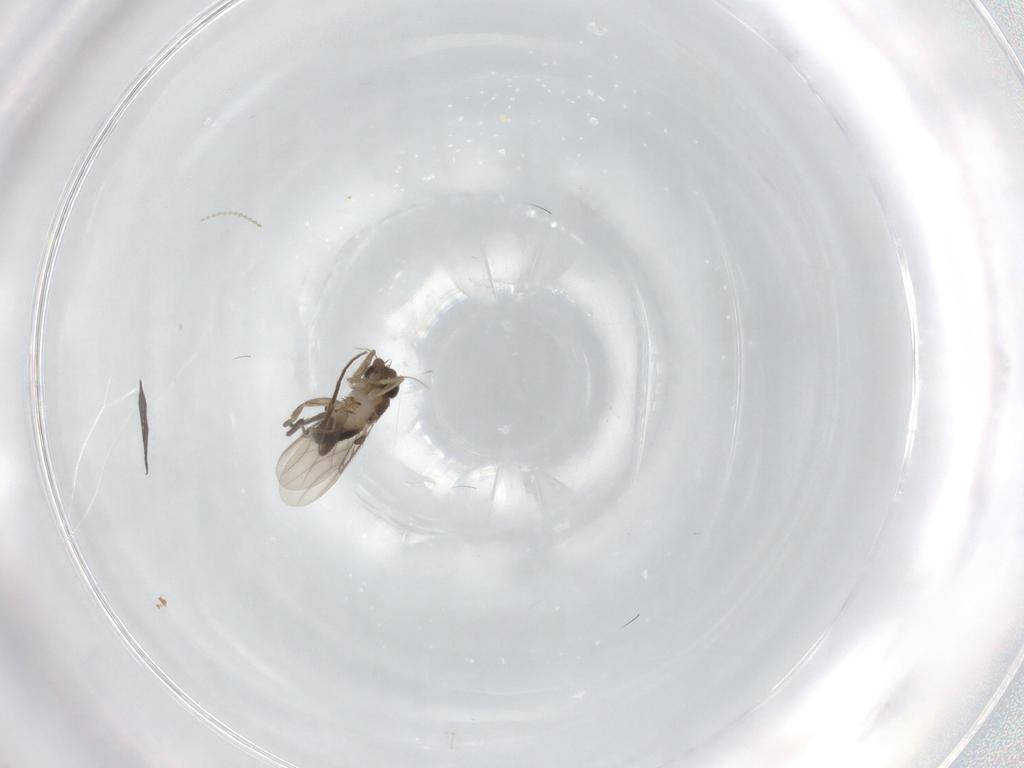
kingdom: Animalia
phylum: Arthropoda
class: Insecta
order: Diptera
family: Phoridae
